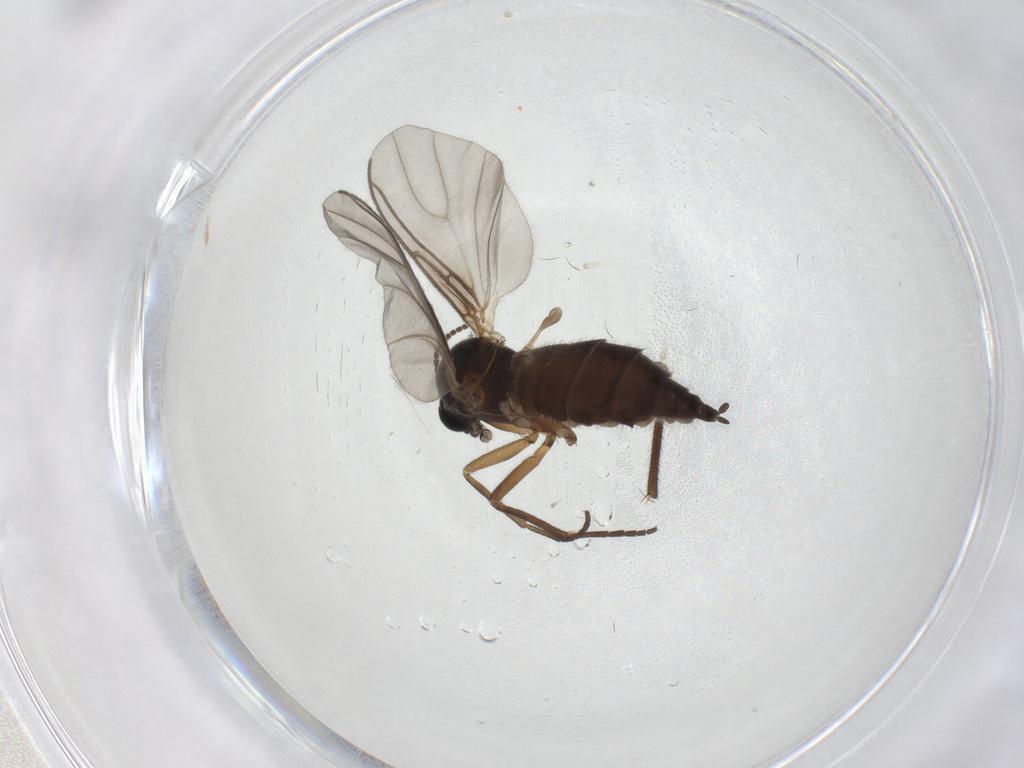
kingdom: Animalia
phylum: Arthropoda
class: Insecta
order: Diptera
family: Sciaridae
